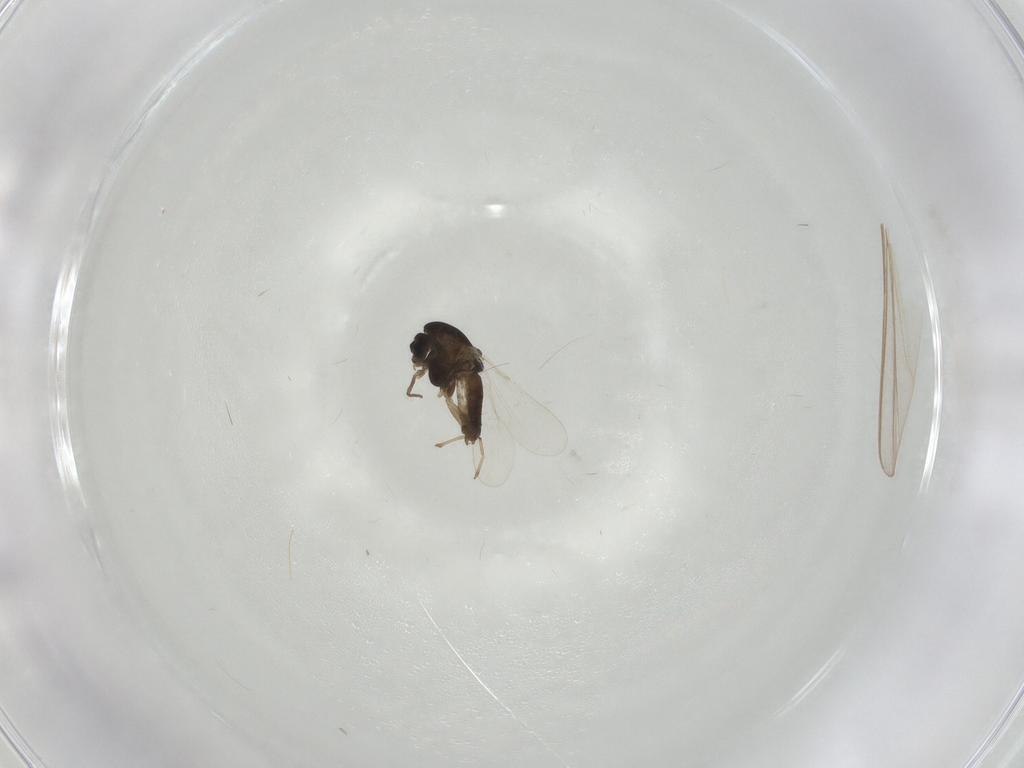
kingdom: Animalia
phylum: Arthropoda
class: Insecta
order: Diptera
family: Chironomidae
